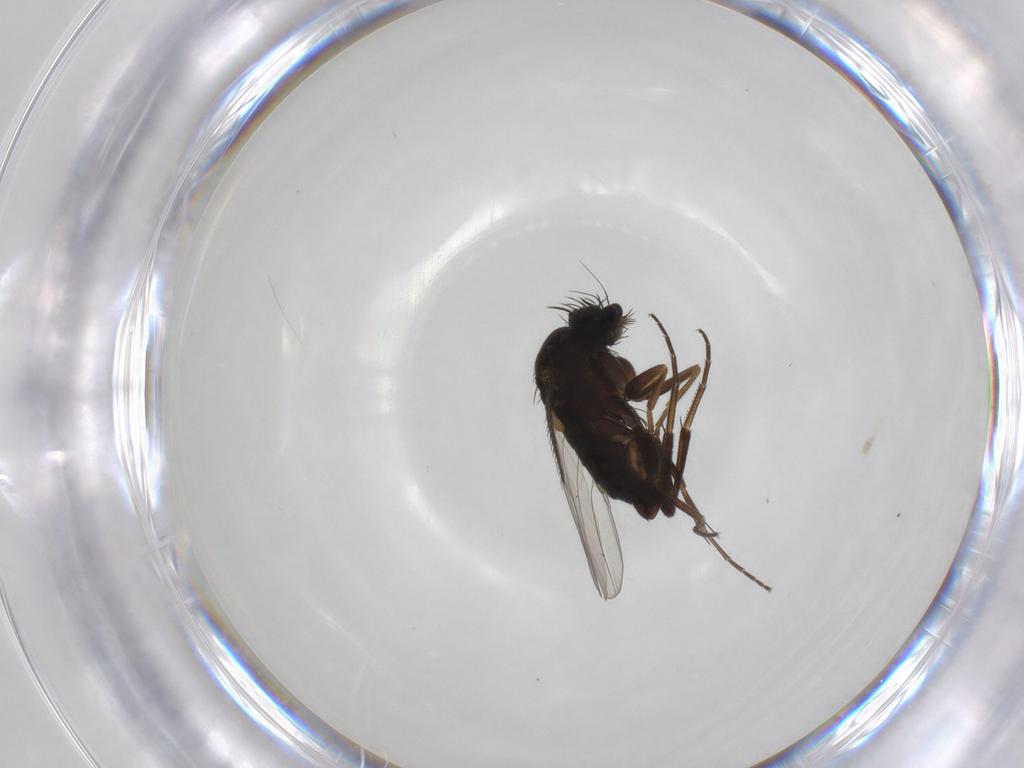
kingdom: Animalia
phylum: Arthropoda
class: Insecta
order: Diptera
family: Phoridae
